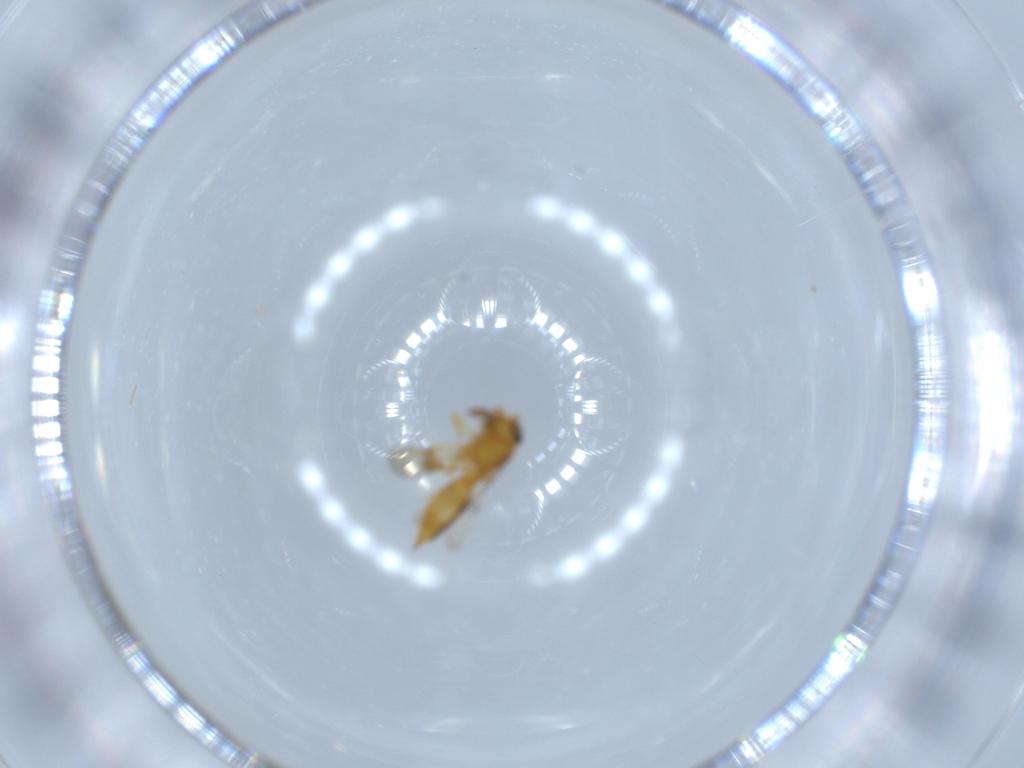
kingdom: Animalia
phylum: Arthropoda
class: Insecta
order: Hymenoptera
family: Scelionidae
